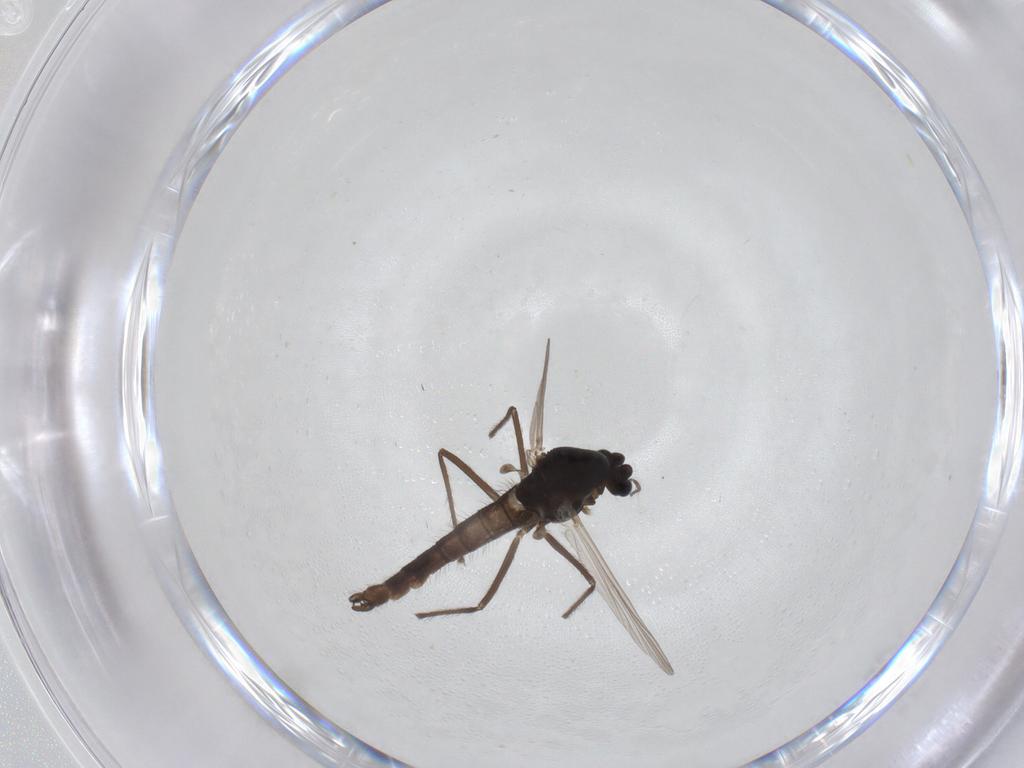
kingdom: Animalia
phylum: Arthropoda
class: Insecta
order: Diptera
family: Chironomidae
